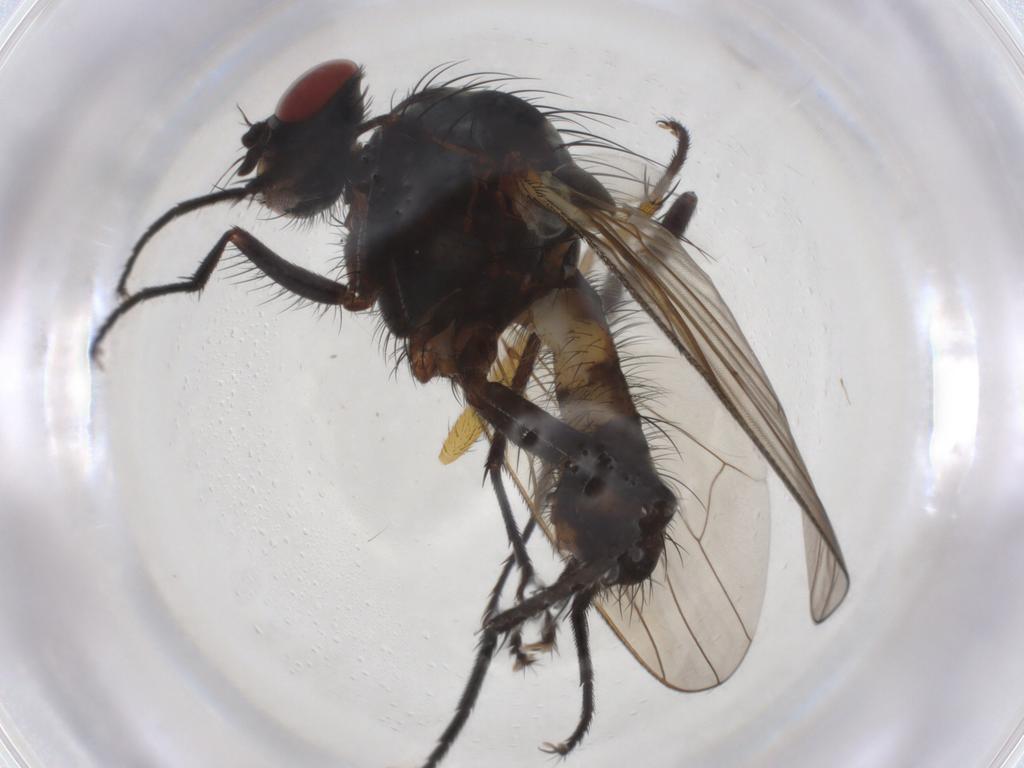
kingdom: Animalia
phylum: Arthropoda
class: Insecta
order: Diptera
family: Anthomyiidae
